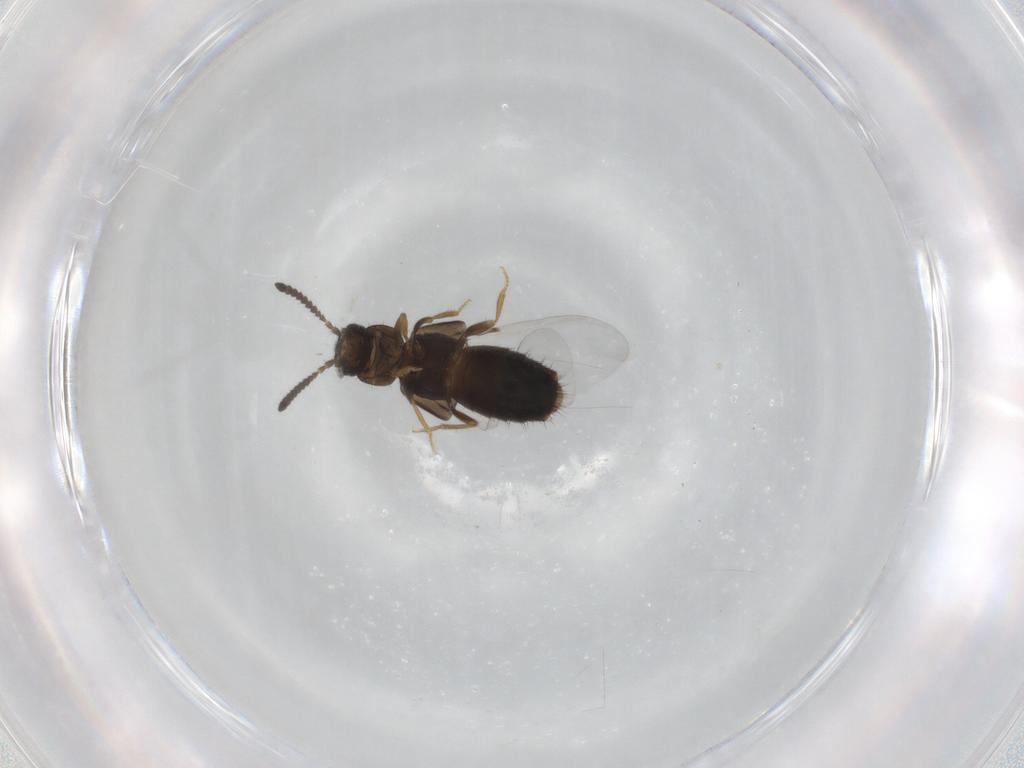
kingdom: Animalia
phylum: Arthropoda
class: Insecta
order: Coleoptera
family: Staphylinidae
